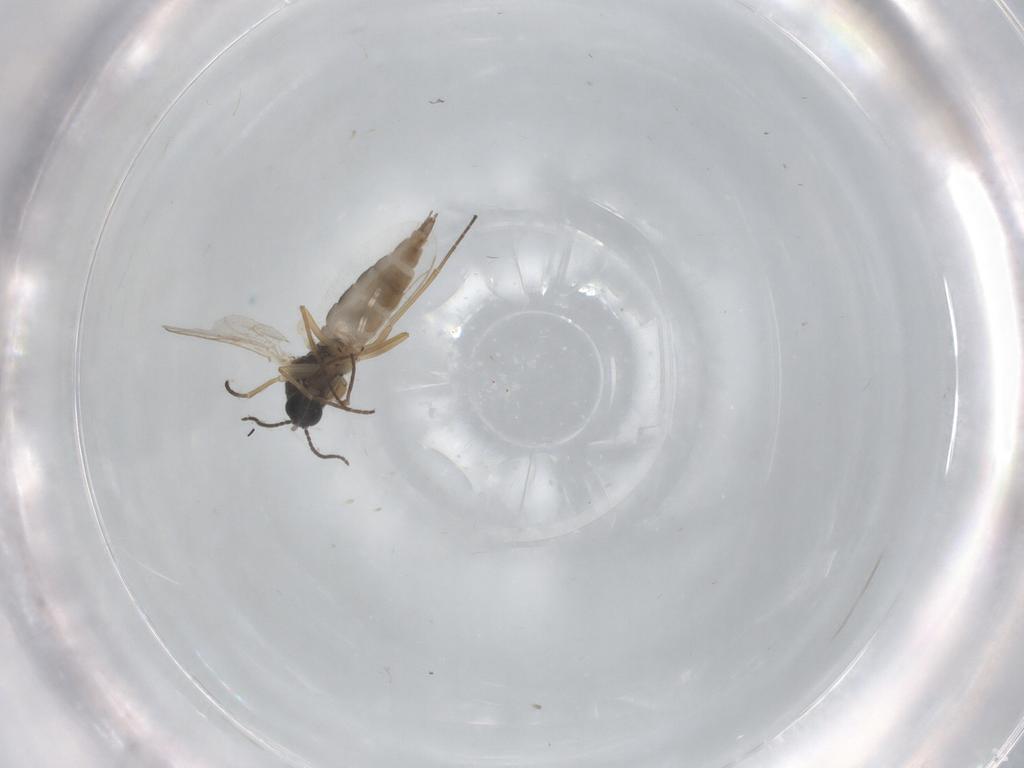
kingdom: Animalia
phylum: Arthropoda
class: Insecta
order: Diptera
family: Sciaridae
